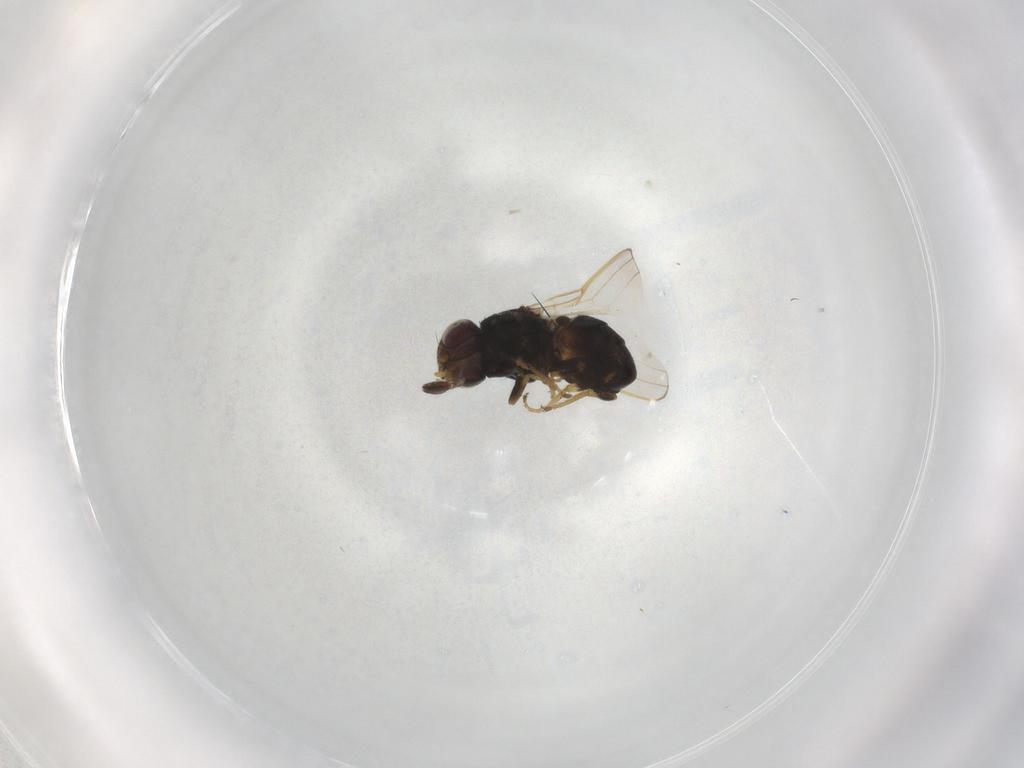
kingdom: Animalia
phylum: Arthropoda
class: Insecta
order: Diptera
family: Chloropidae
